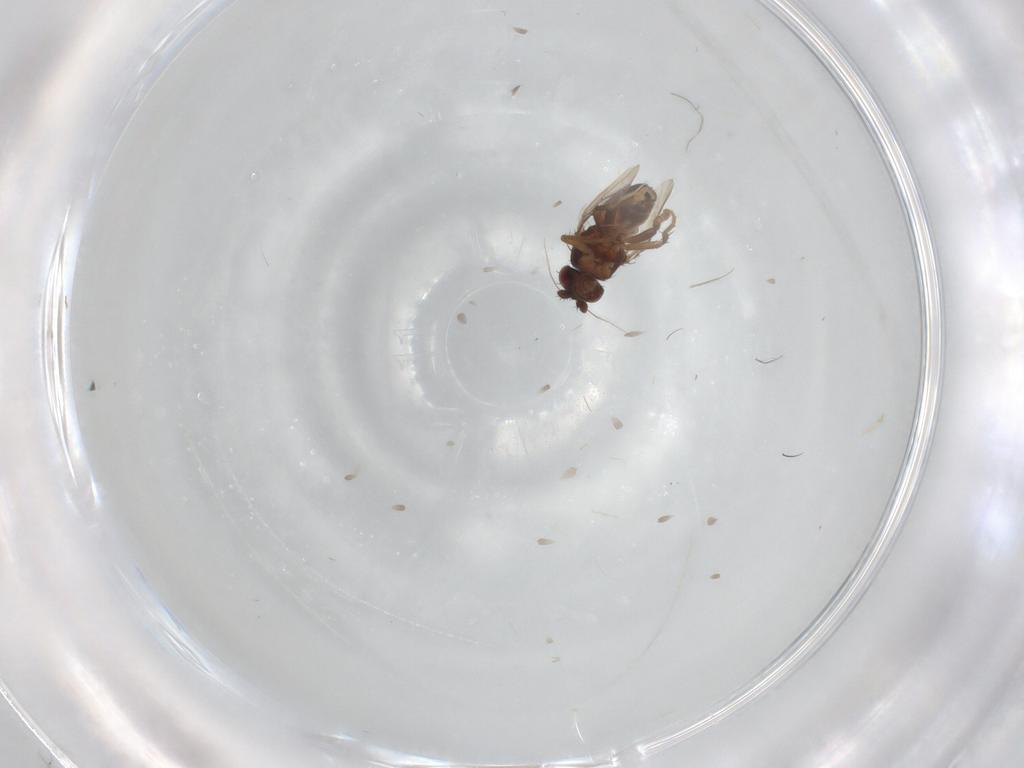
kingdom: Animalia
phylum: Arthropoda
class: Insecta
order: Diptera
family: Sphaeroceridae
